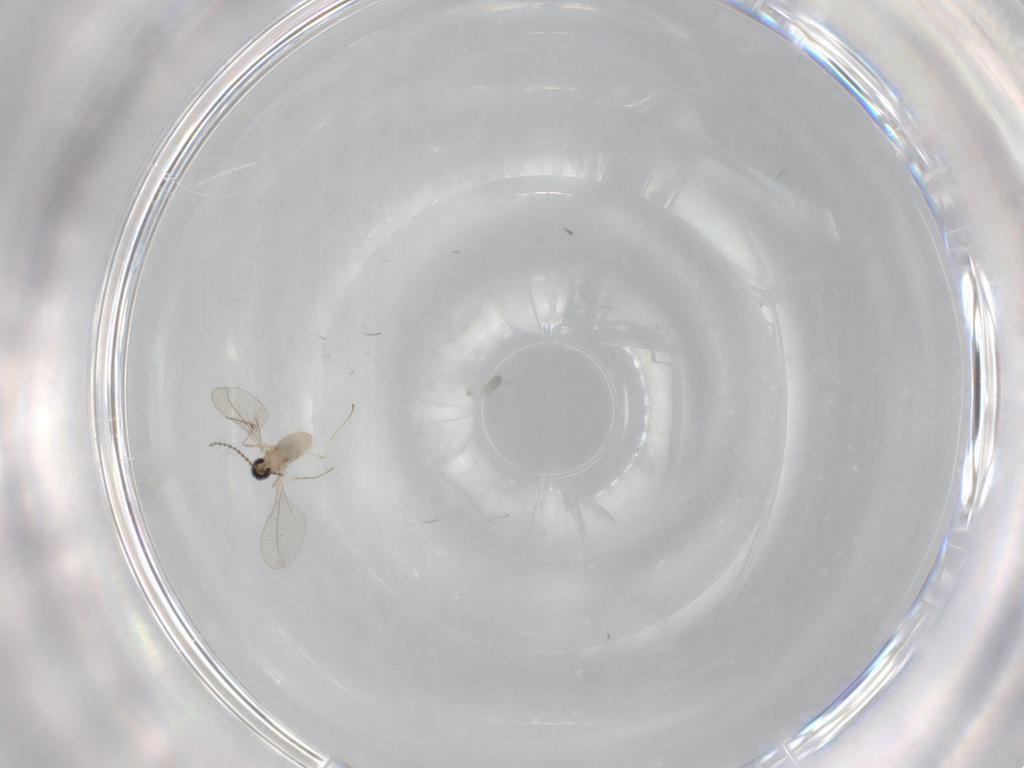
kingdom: Animalia
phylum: Arthropoda
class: Insecta
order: Diptera
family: Cecidomyiidae
